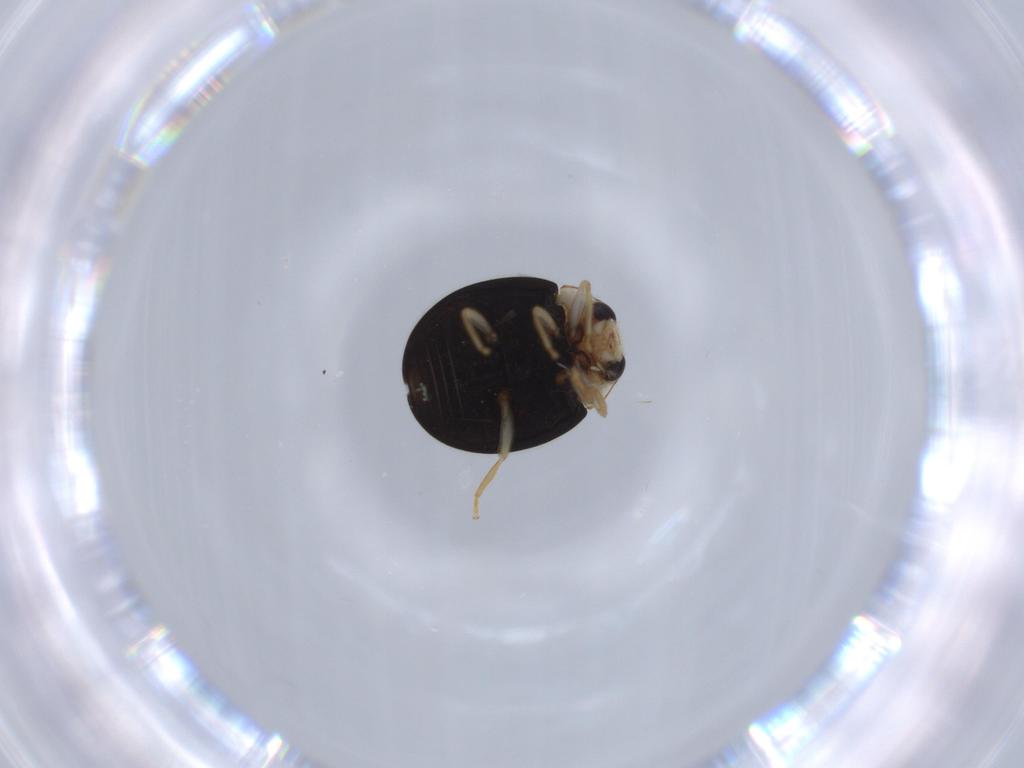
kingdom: Animalia
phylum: Arthropoda
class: Insecta
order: Coleoptera
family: Coccinellidae
